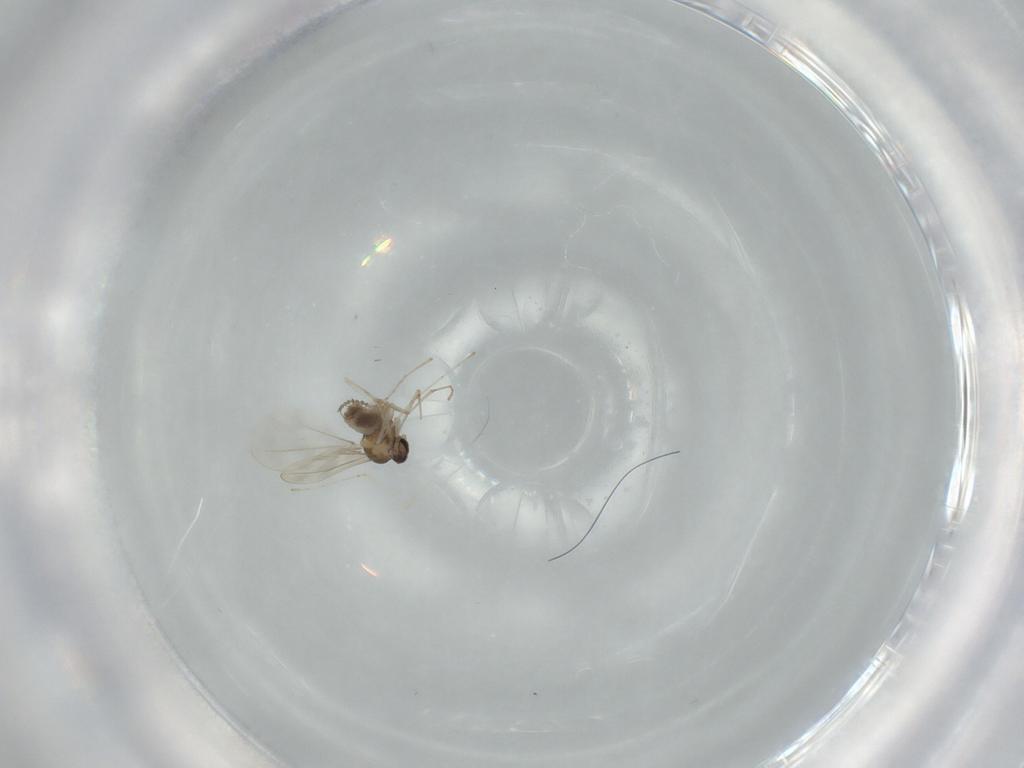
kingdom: Animalia
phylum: Arthropoda
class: Insecta
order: Diptera
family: Cecidomyiidae
